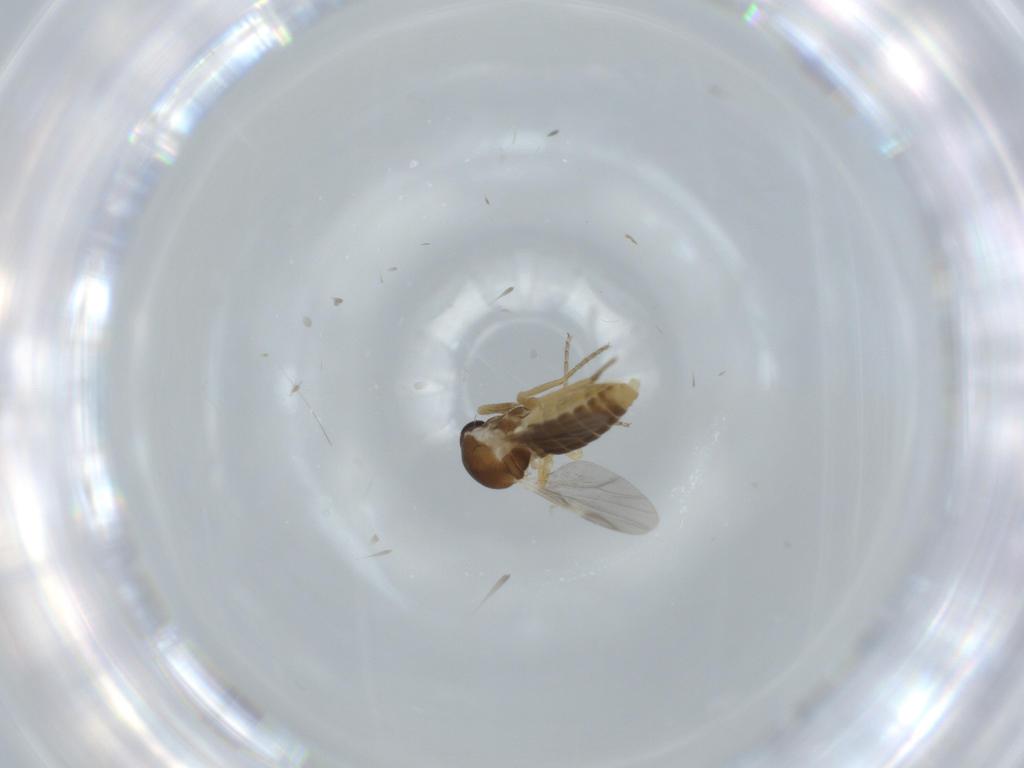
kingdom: Animalia
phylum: Arthropoda
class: Insecta
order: Diptera
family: Ceratopogonidae
